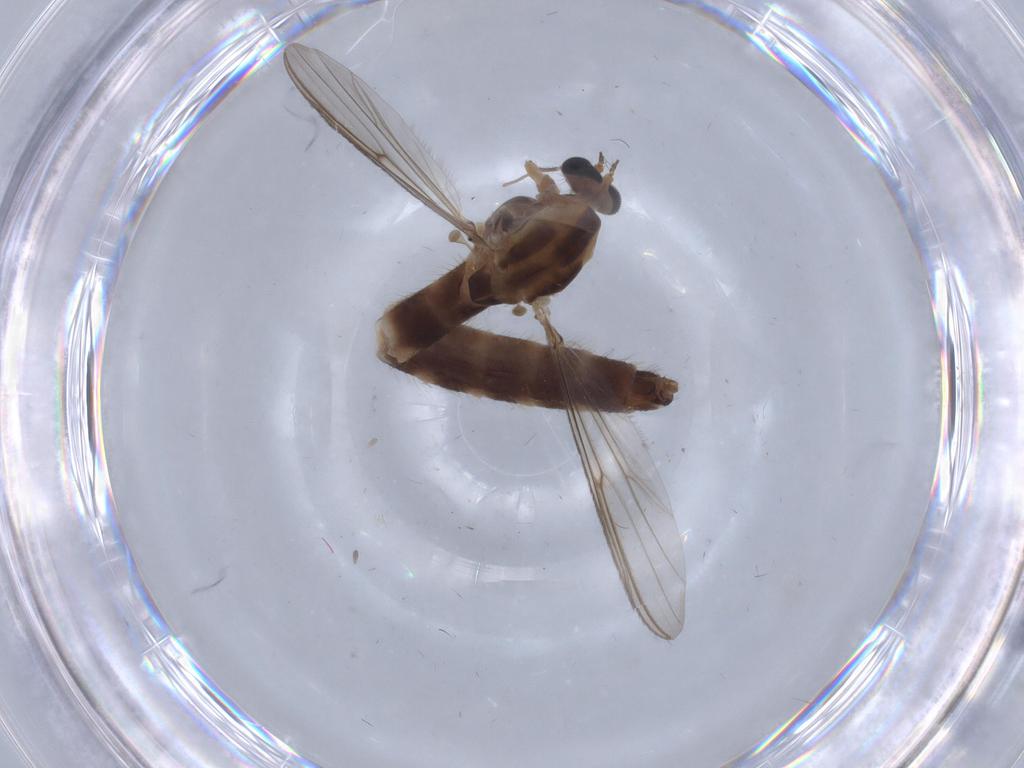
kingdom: Animalia
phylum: Arthropoda
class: Insecta
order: Diptera
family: Chironomidae
